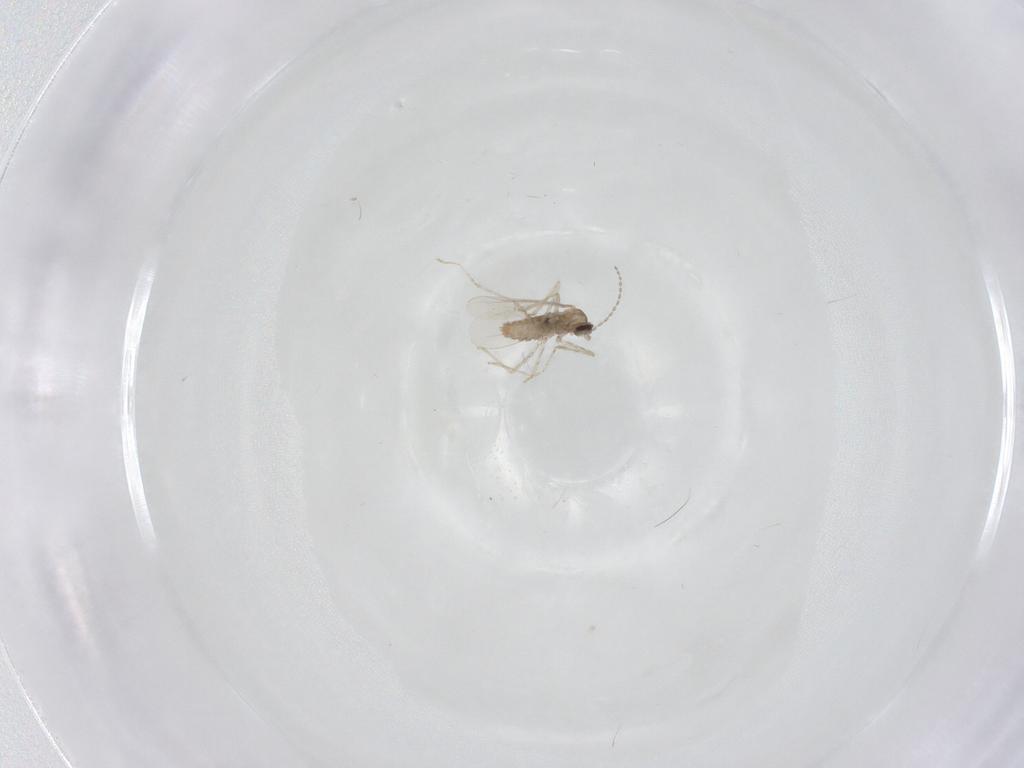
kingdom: Animalia
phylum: Arthropoda
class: Insecta
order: Diptera
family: Cecidomyiidae
